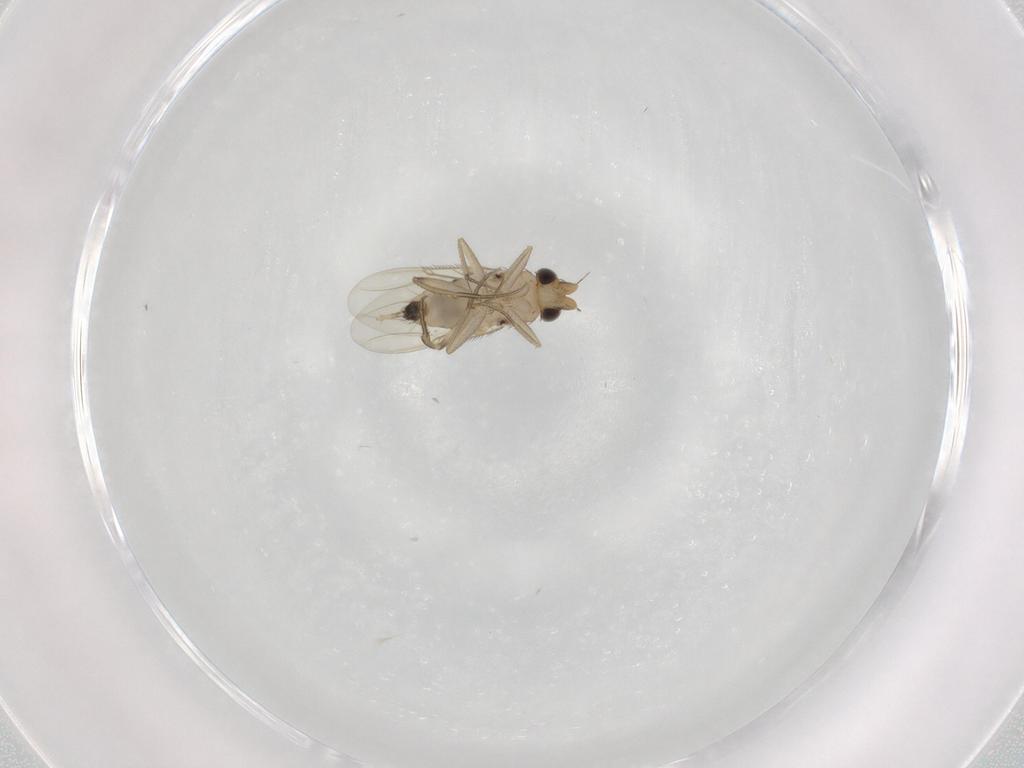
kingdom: Animalia
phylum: Arthropoda
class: Insecta
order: Diptera
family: Phoridae
